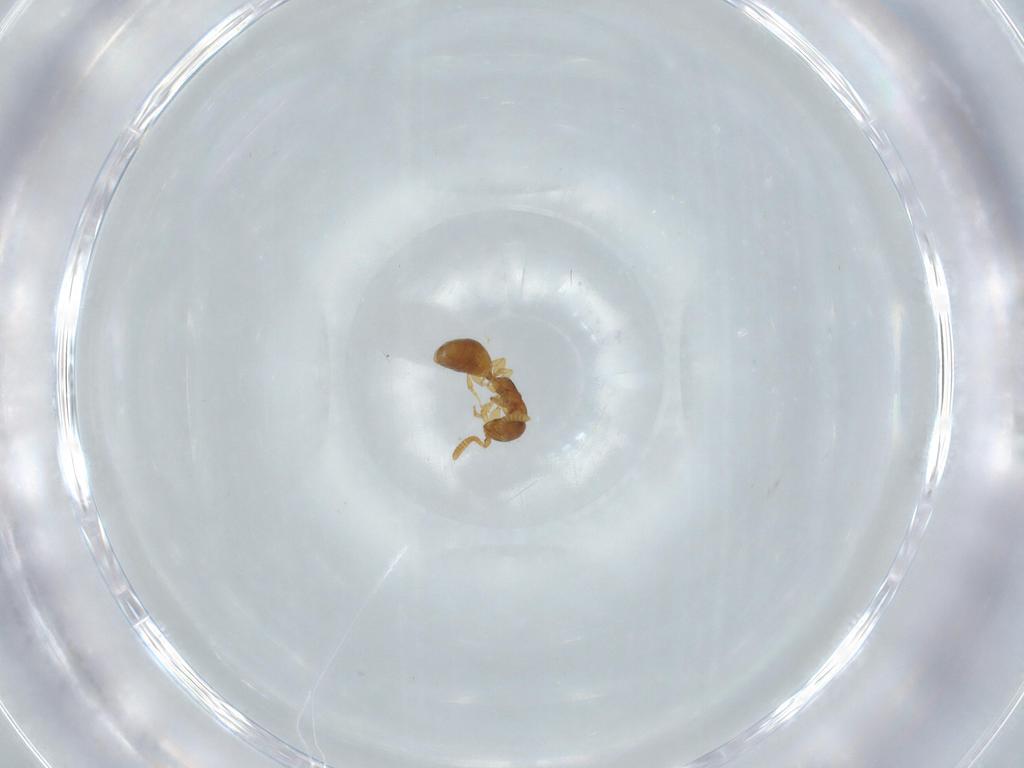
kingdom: Animalia
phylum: Arthropoda
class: Insecta
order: Hymenoptera
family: Bethylidae
